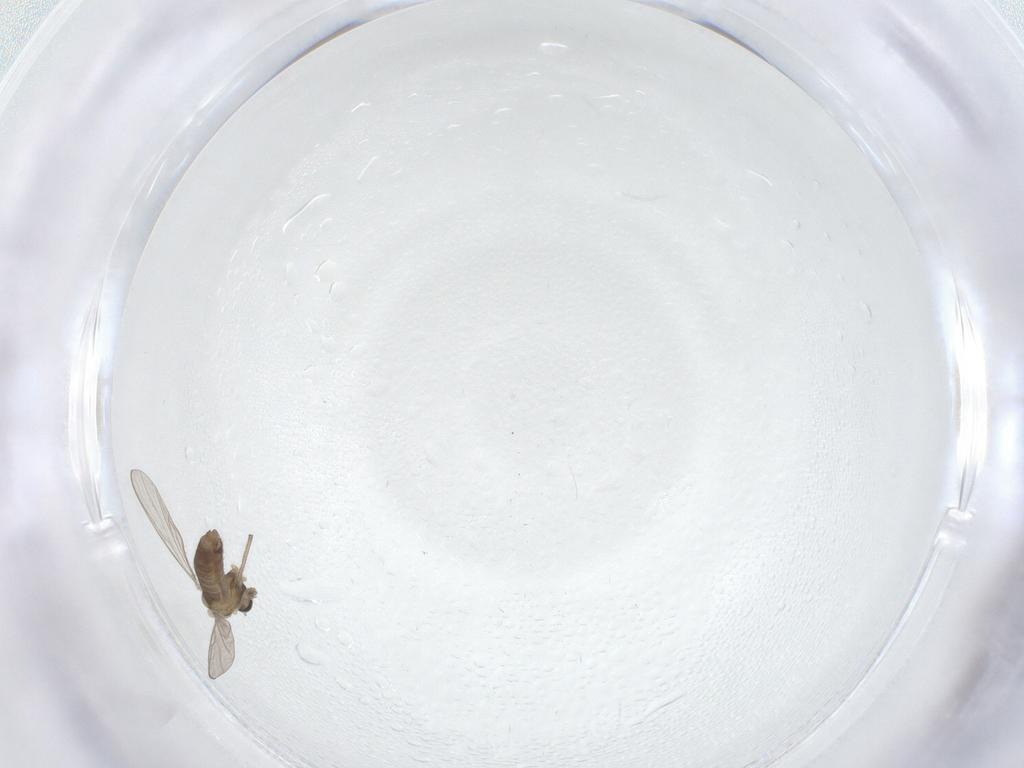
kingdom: Animalia
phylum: Arthropoda
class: Insecta
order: Diptera
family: Chironomidae
